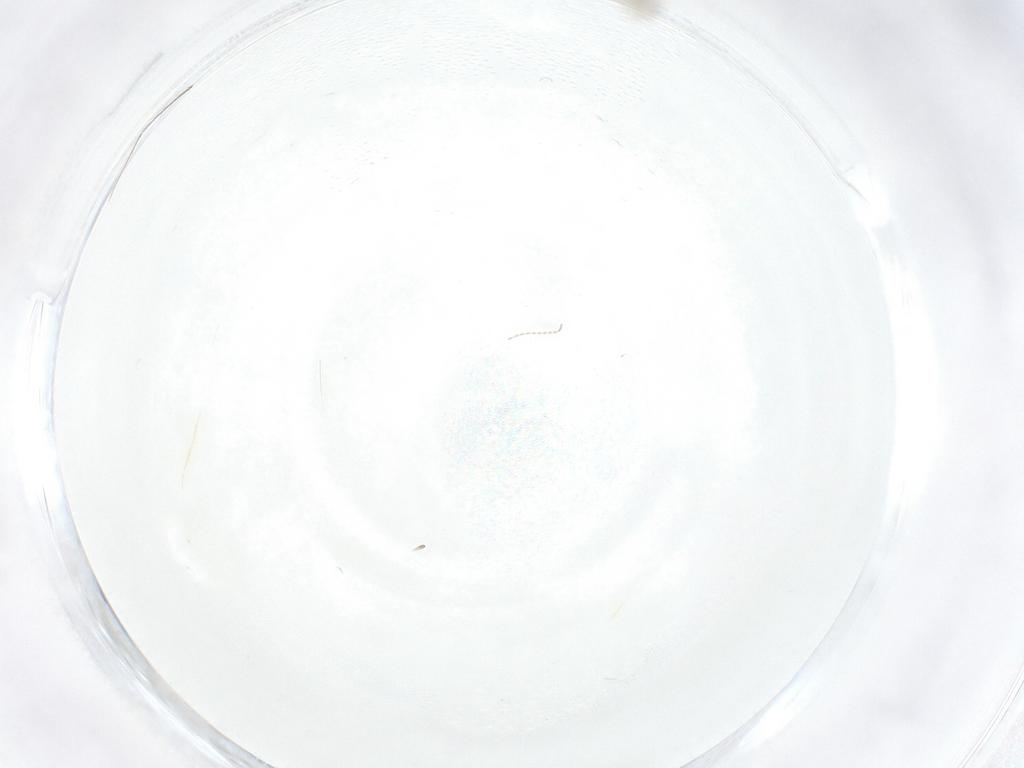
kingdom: Animalia
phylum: Arthropoda
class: Insecta
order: Diptera
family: Cecidomyiidae
